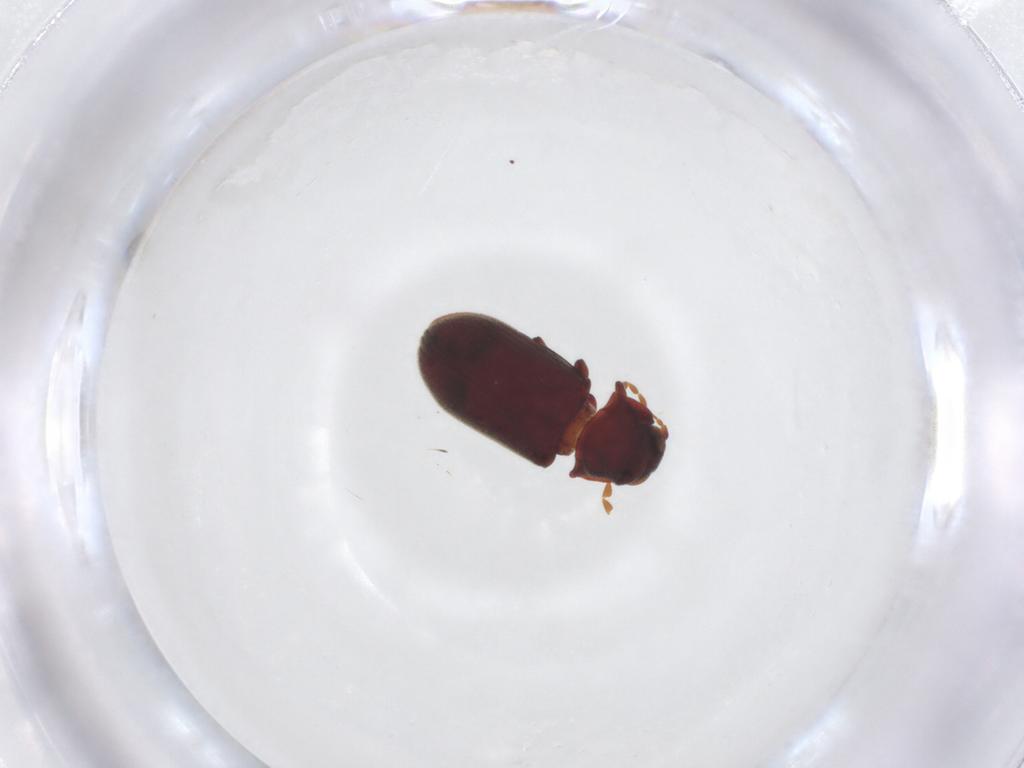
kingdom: Animalia
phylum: Arthropoda
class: Insecta
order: Coleoptera
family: Anobiidae
